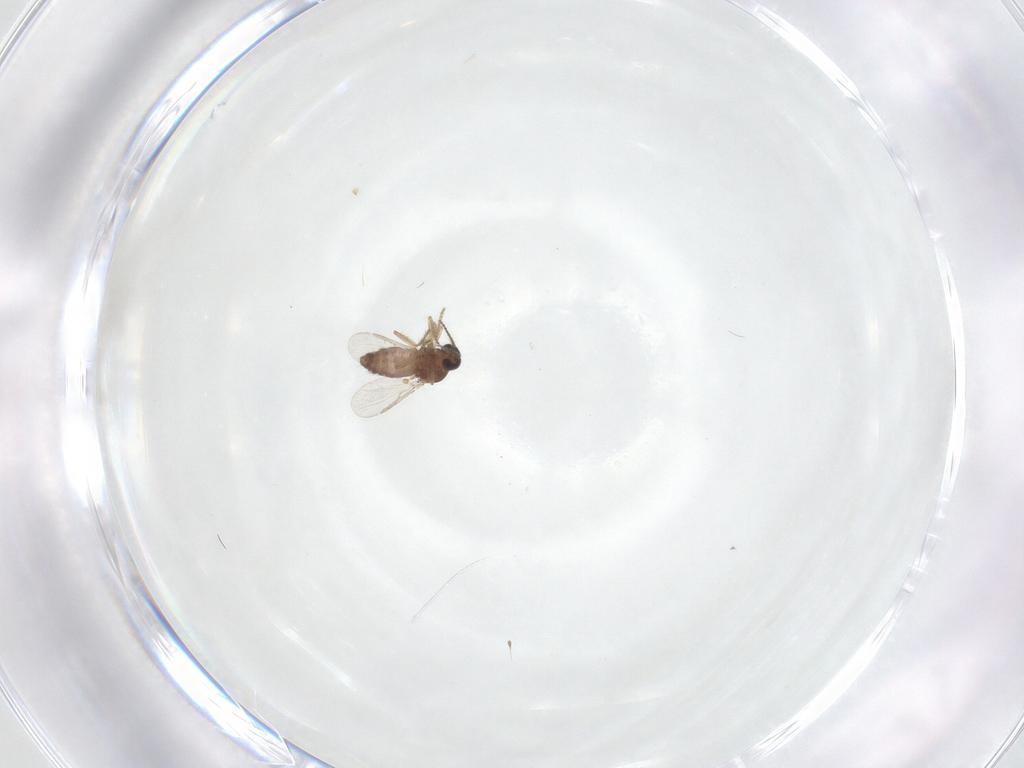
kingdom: Animalia
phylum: Arthropoda
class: Insecta
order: Diptera
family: Ceratopogonidae
